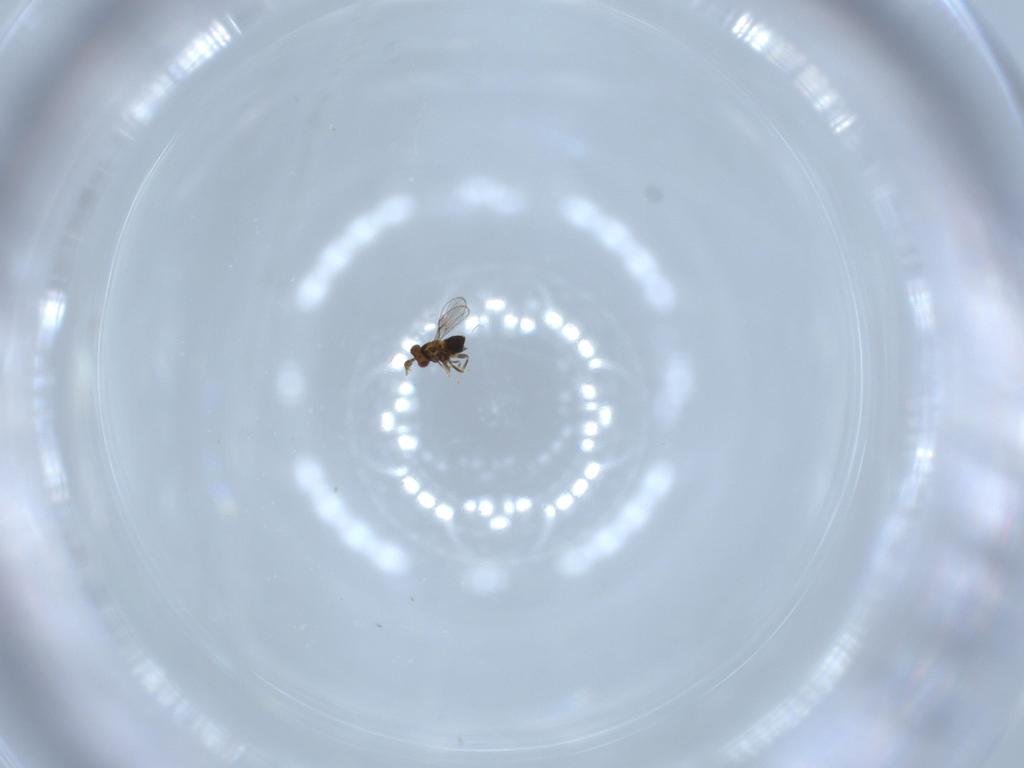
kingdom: Animalia
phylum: Arthropoda
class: Insecta
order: Hymenoptera
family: Trichogrammatidae
